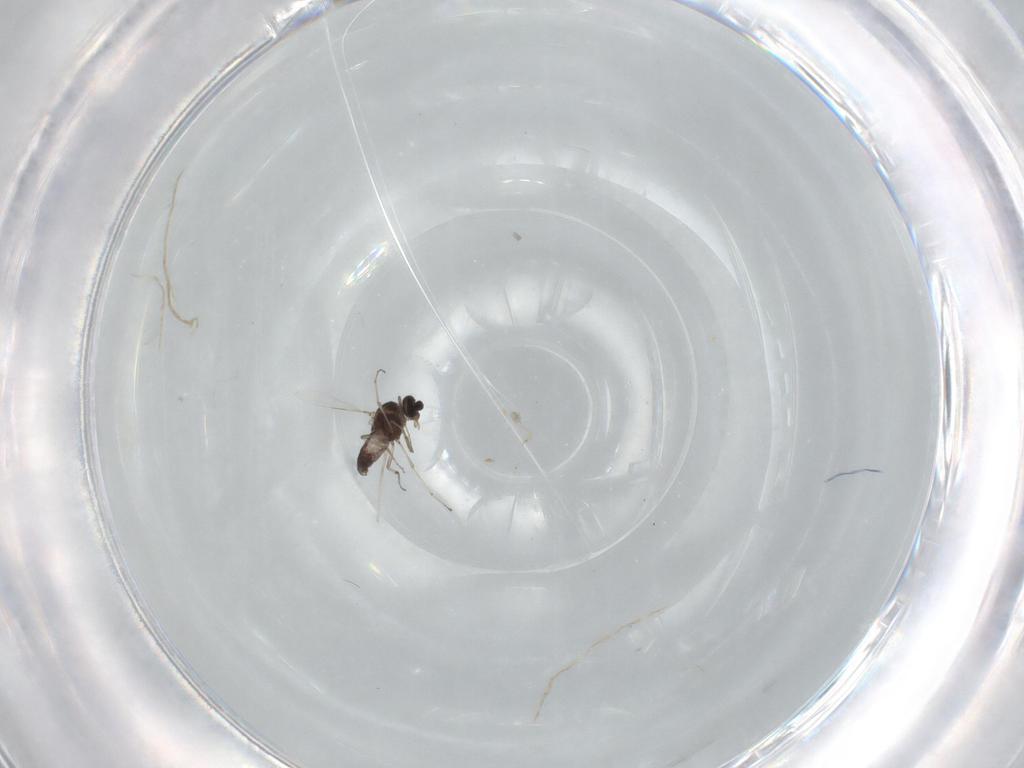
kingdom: Animalia
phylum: Arthropoda
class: Insecta
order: Diptera
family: Ceratopogonidae
